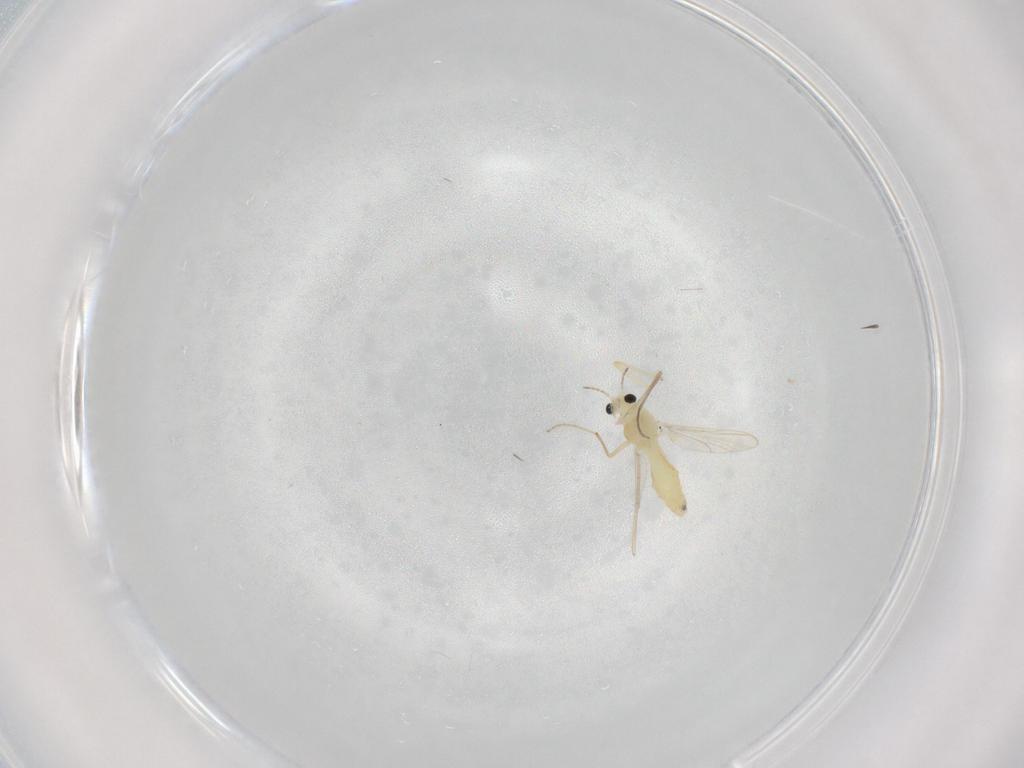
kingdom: Animalia
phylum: Arthropoda
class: Insecta
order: Diptera
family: Chironomidae
